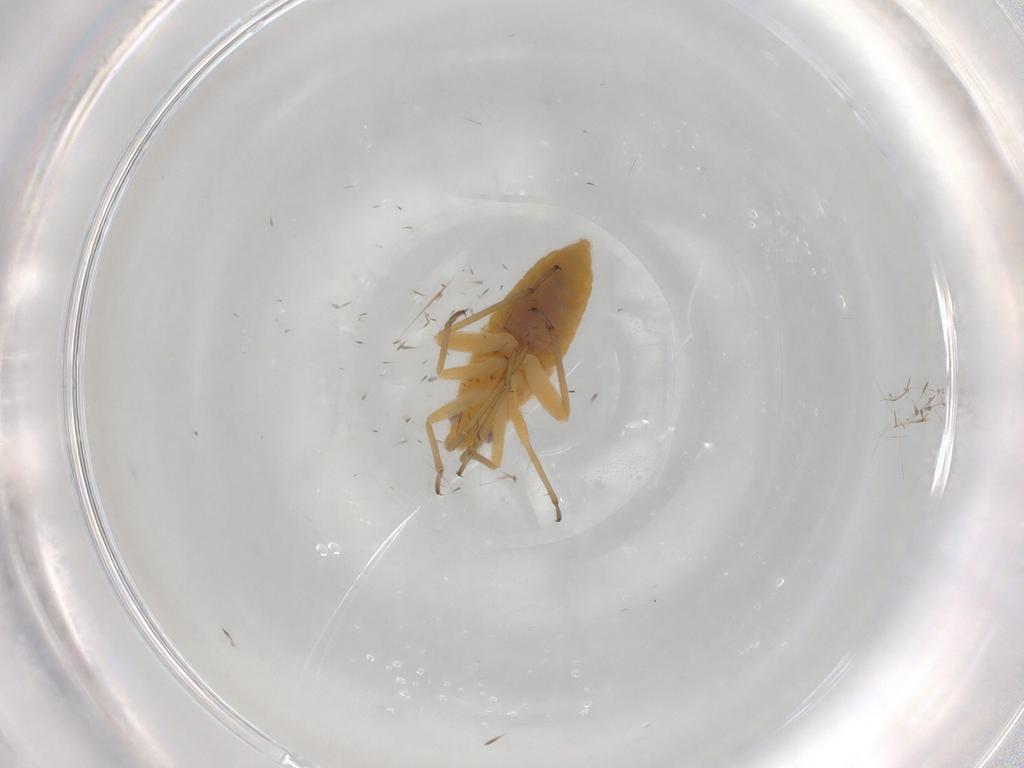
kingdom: Animalia
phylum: Arthropoda
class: Insecta
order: Hemiptera
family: Miridae
